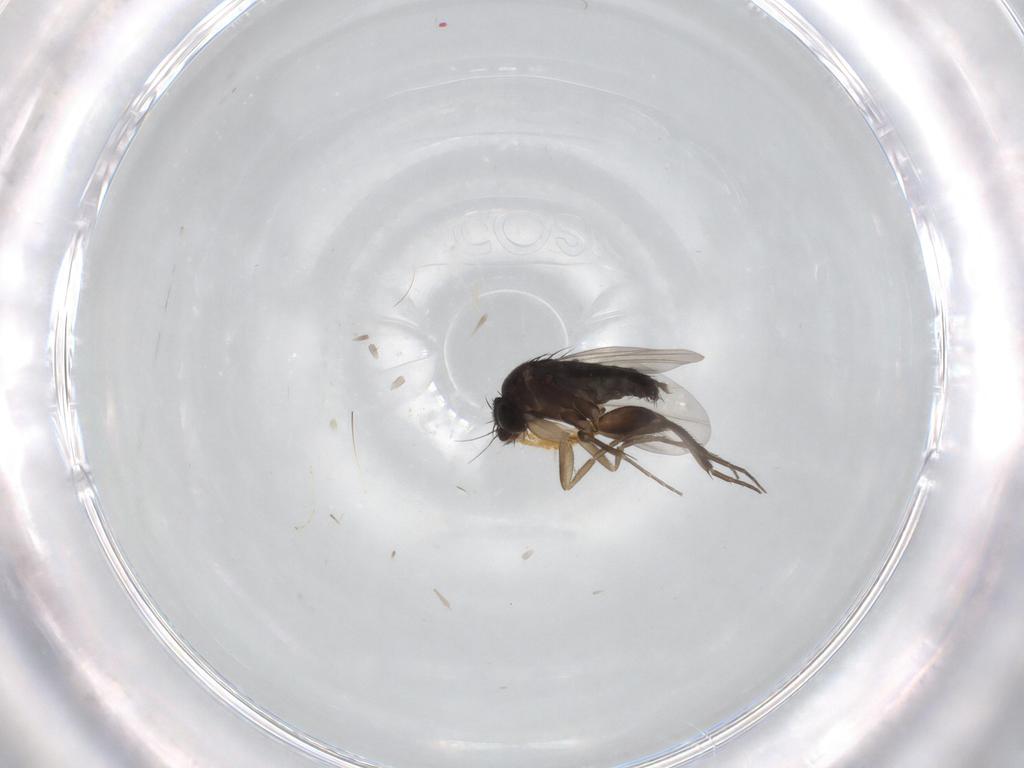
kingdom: Animalia
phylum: Arthropoda
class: Insecta
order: Diptera
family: Phoridae
